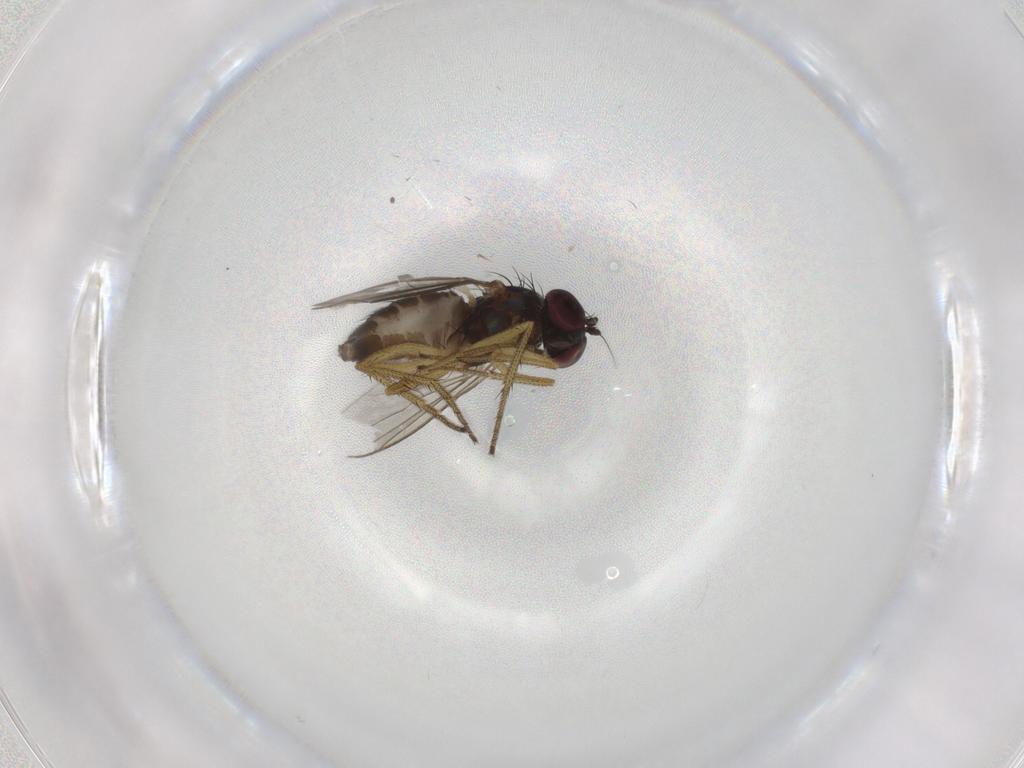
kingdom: Animalia
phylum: Arthropoda
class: Insecta
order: Diptera
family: Dolichopodidae
